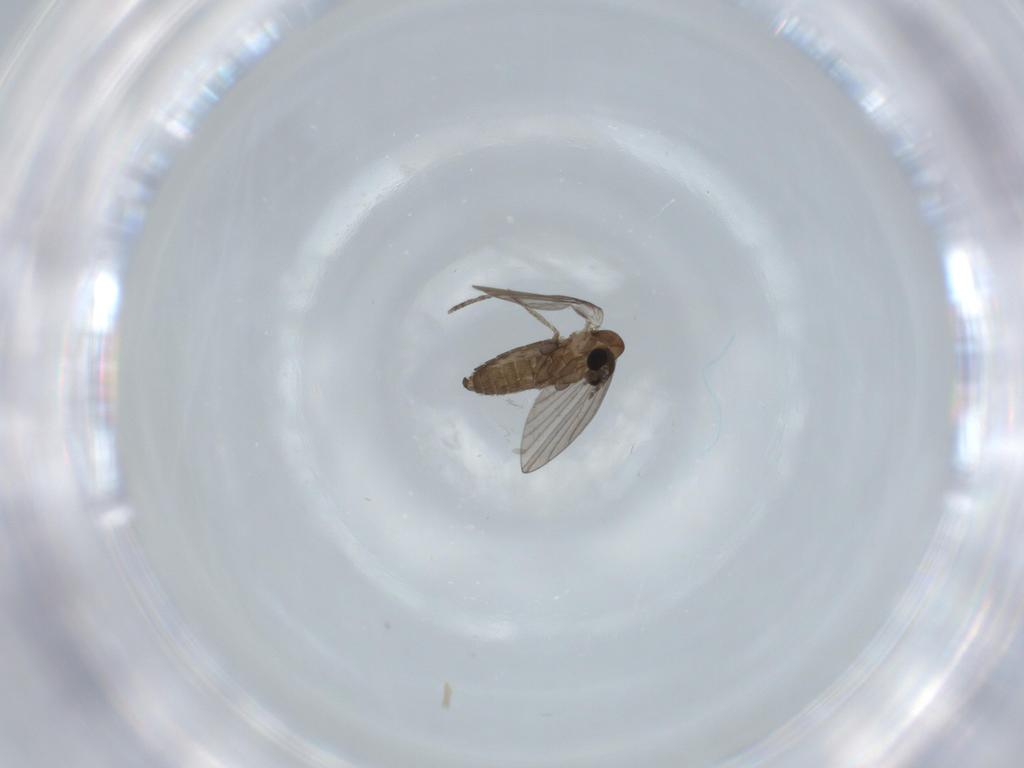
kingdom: Animalia
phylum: Arthropoda
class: Insecta
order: Diptera
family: Psychodidae
